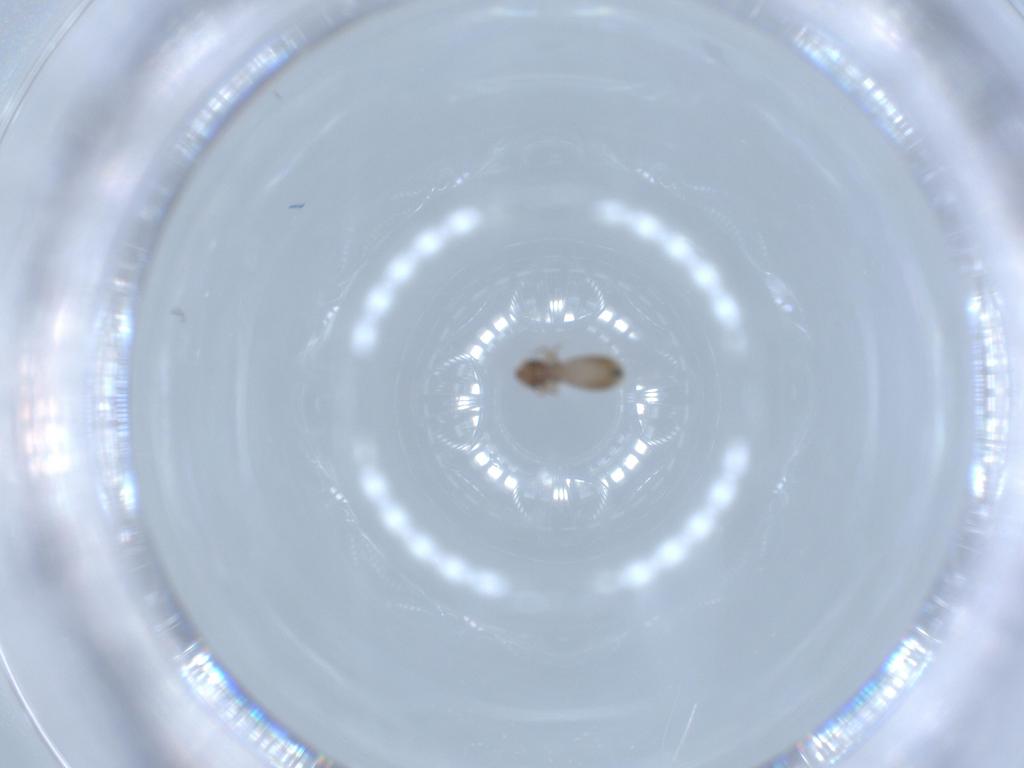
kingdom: Animalia
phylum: Arthropoda
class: Insecta
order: Psocodea
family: Liposcelididae
